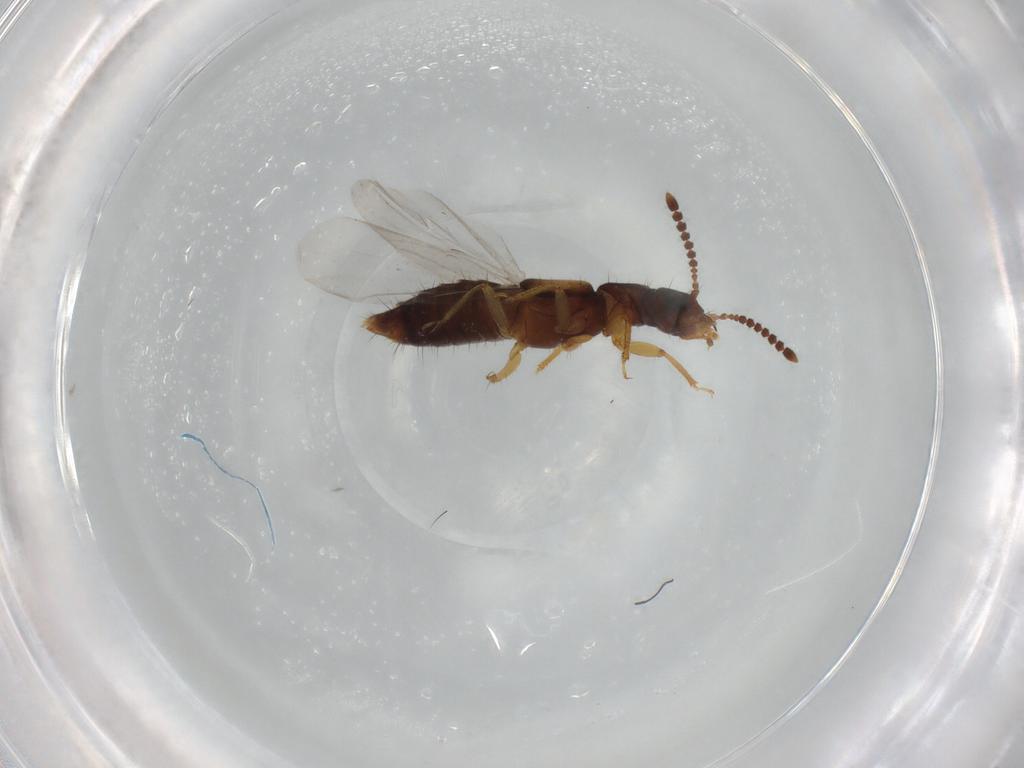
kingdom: Animalia
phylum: Arthropoda
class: Insecta
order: Coleoptera
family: Staphylinidae
